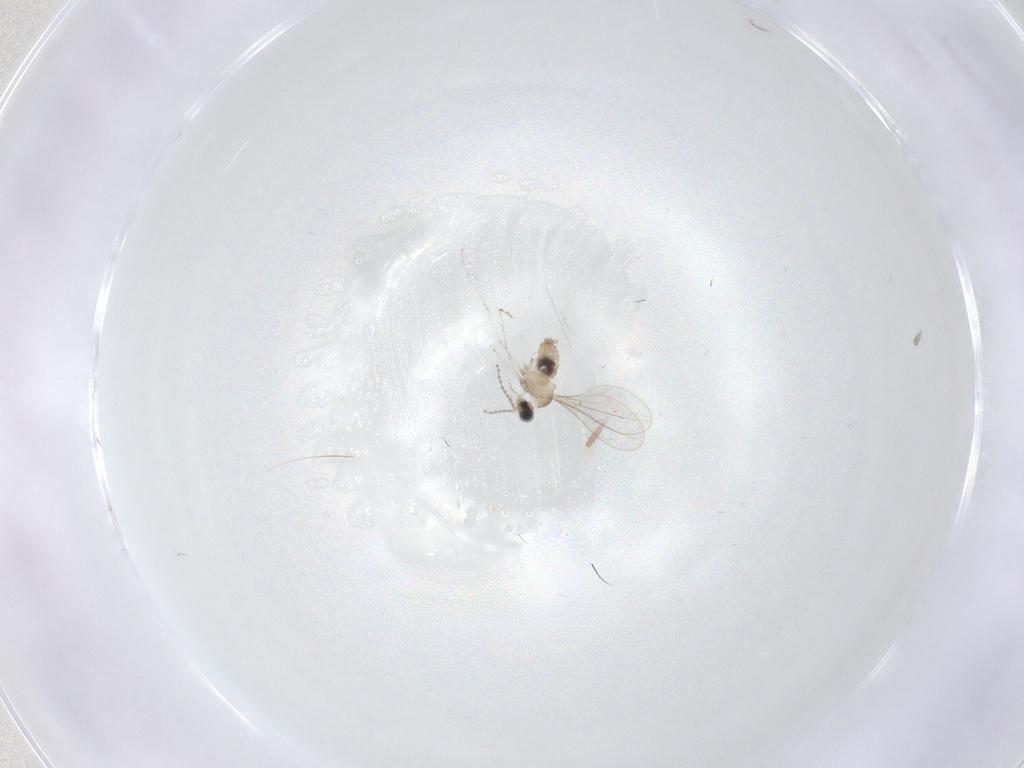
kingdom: Animalia
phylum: Arthropoda
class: Insecta
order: Diptera
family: Cecidomyiidae
